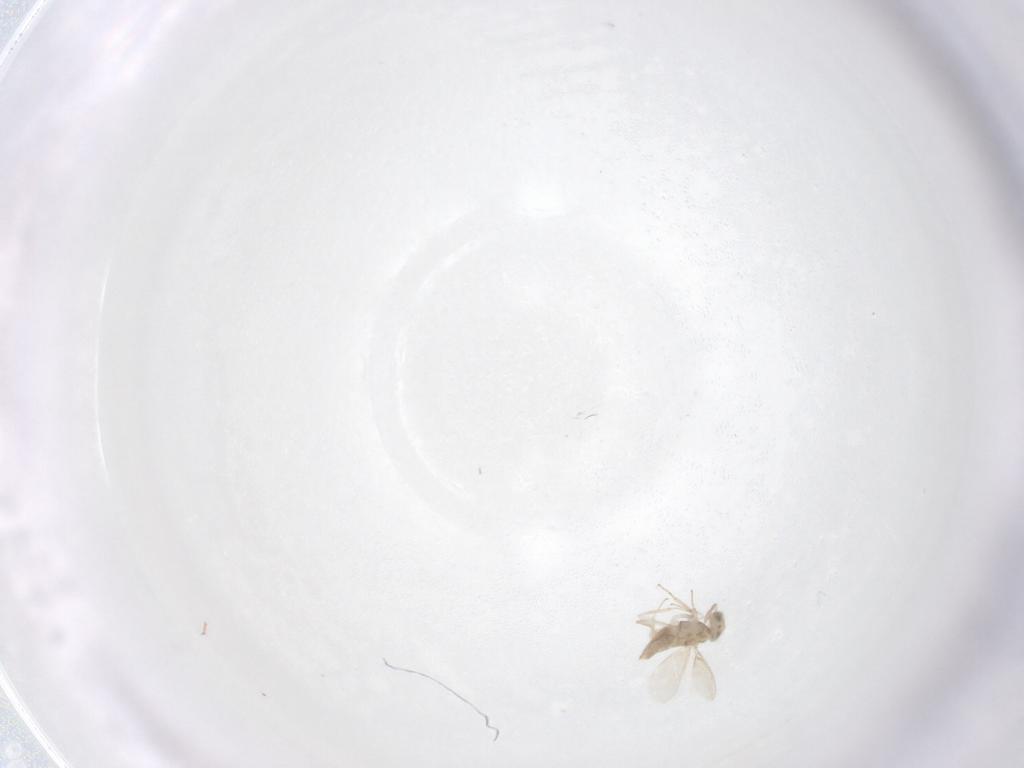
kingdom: Animalia
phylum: Arthropoda
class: Insecta
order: Hymenoptera
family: Aphelinidae
